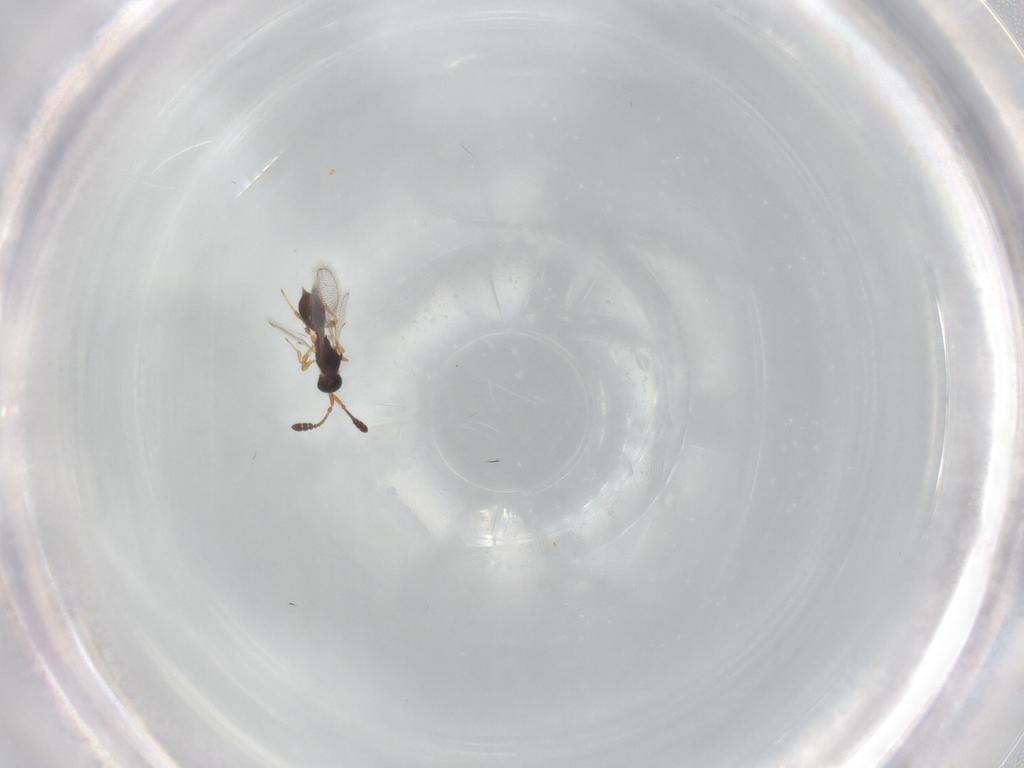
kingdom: Animalia
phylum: Arthropoda
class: Insecta
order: Hymenoptera
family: Diapriidae
